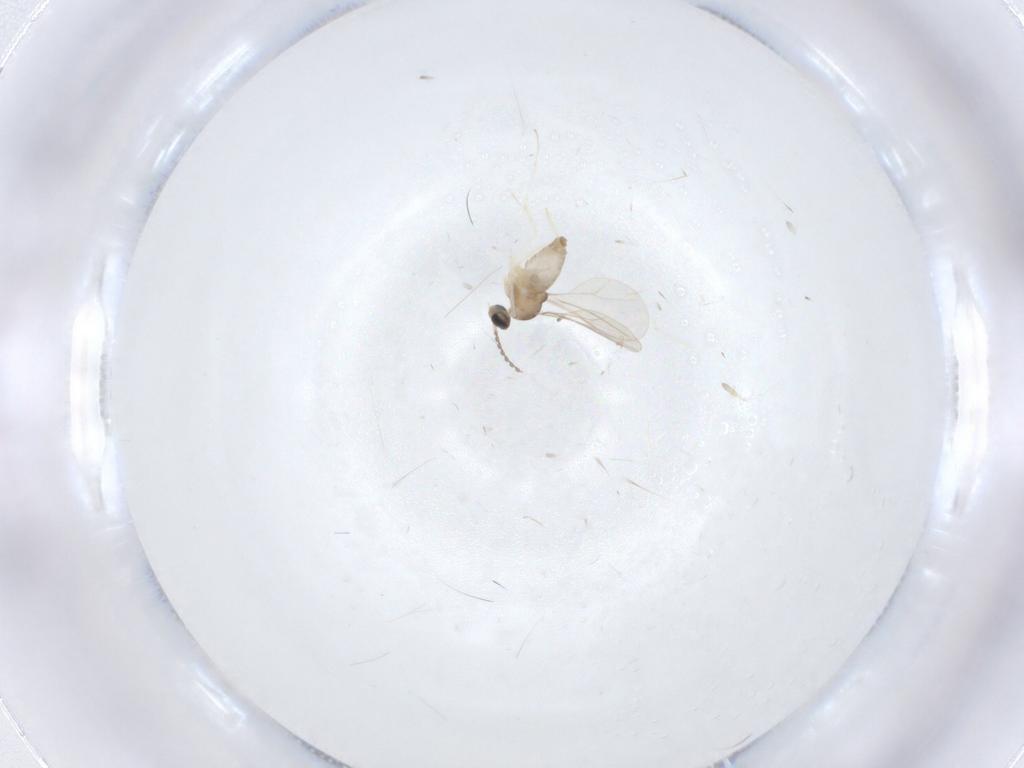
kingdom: Animalia
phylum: Arthropoda
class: Insecta
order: Diptera
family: Cecidomyiidae
